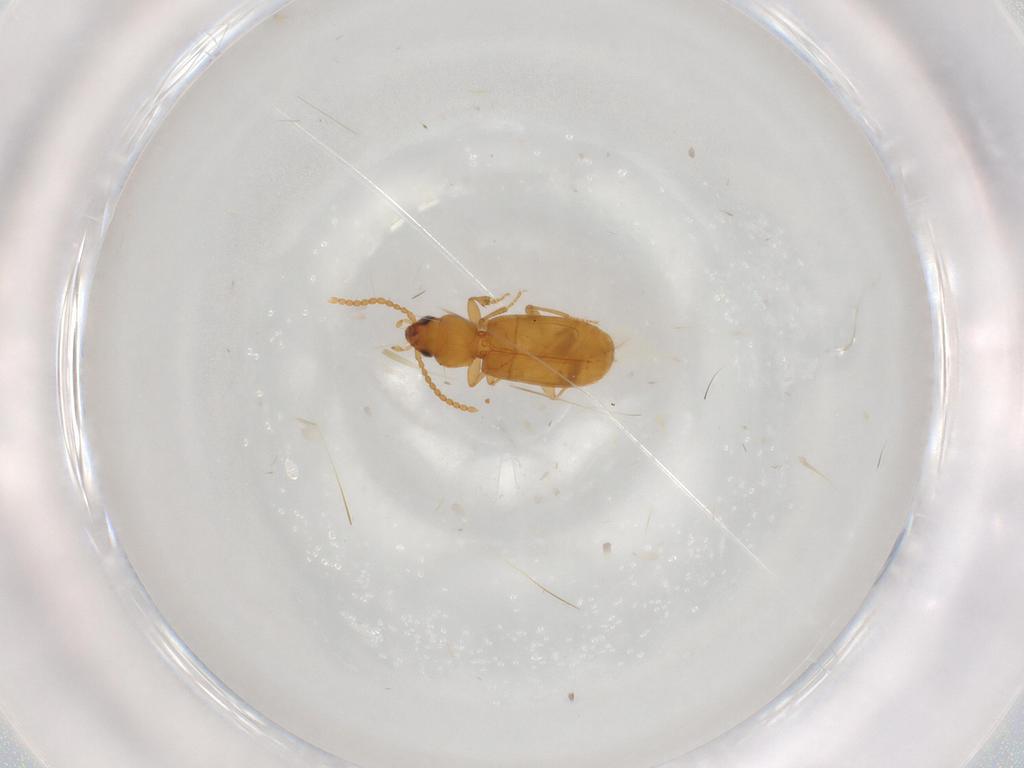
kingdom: Animalia
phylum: Arthropoda
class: Insecta
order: Coleoptera
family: Carabidae
